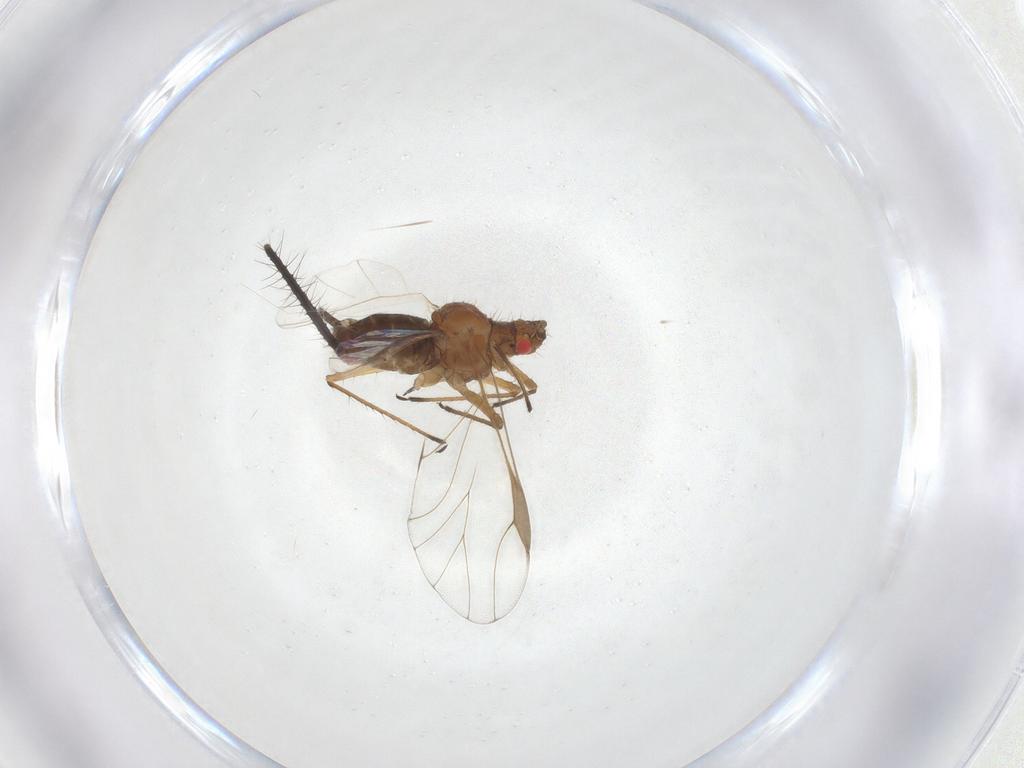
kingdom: Animalia
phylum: Arthropoda
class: Insecta
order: Hemiptera
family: Aphididae
